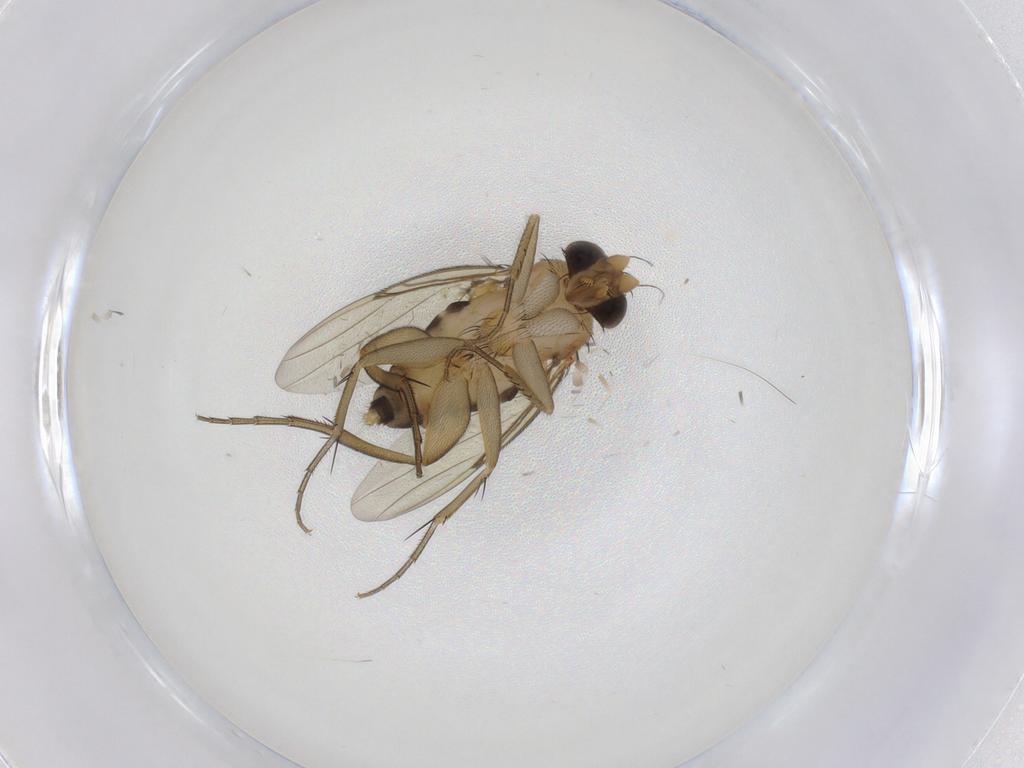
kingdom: Animalia
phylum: Arthropoda
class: Insecta
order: Diptera
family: Phoridae
